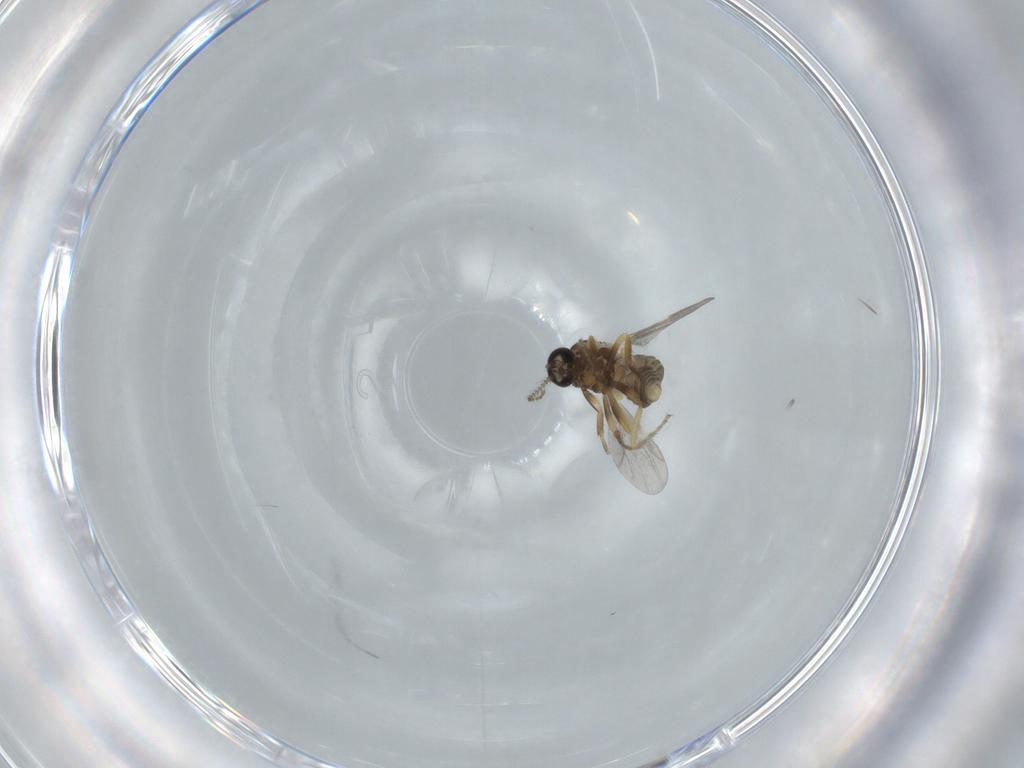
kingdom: Animalia
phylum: Arthropoda
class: Insecta
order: Diptera
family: Ceratopogonidae
